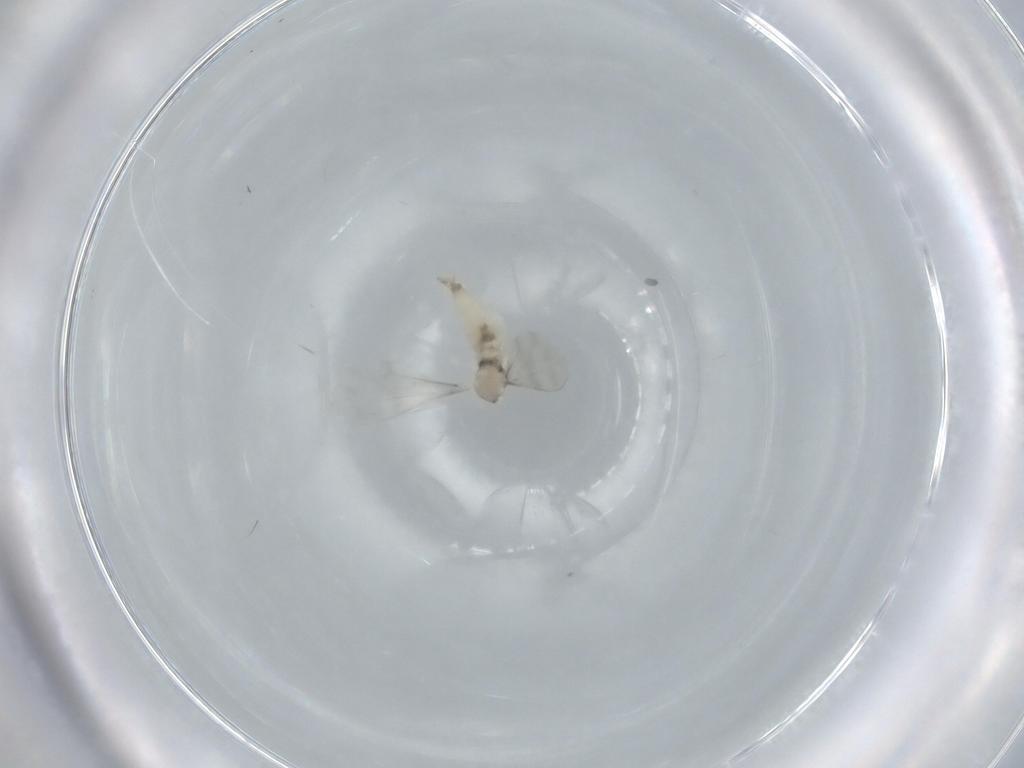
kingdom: Animalia
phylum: Arthropoda
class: Insecta
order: Diptera
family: Cecidomyiidae
